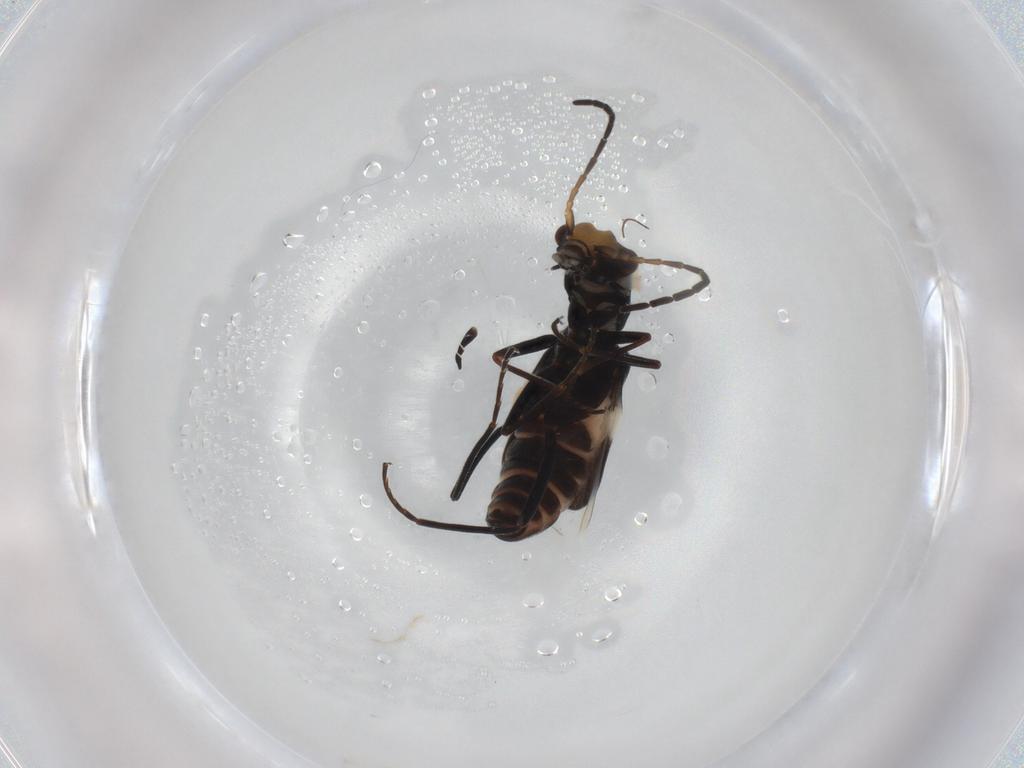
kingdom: Animalia
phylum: Arthropoda
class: Insecta
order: Coleoptera
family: Melyridae
